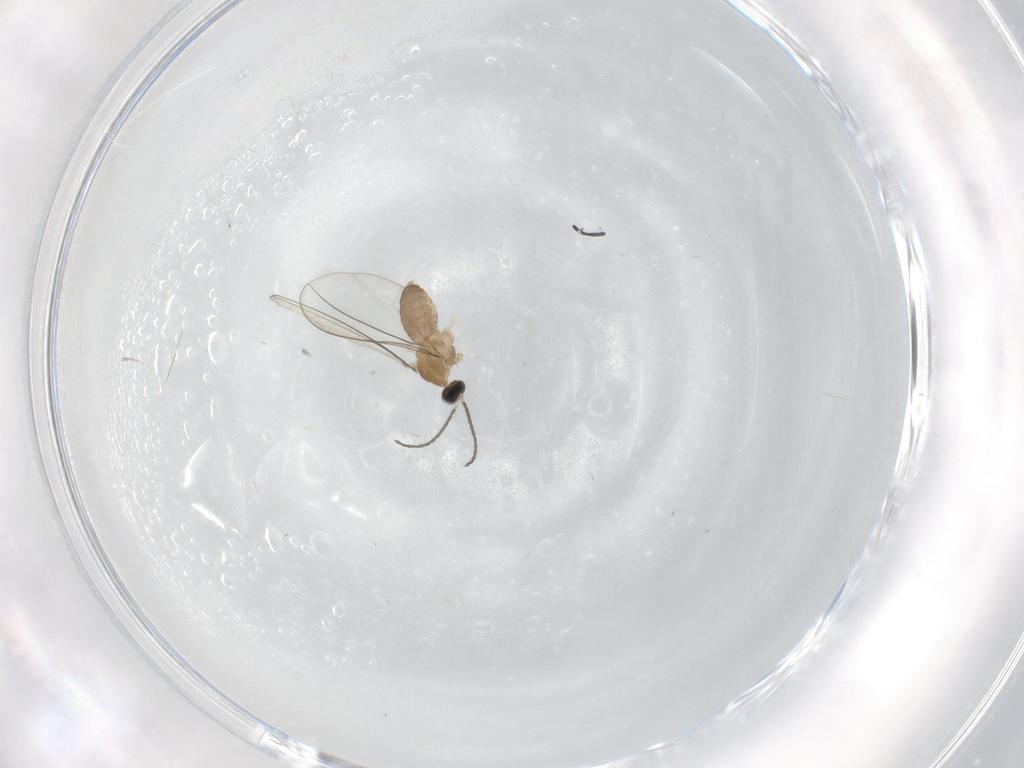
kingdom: Animalia
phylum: Arthropoda
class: Insecta
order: Diptera
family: Cecidomyiidae
